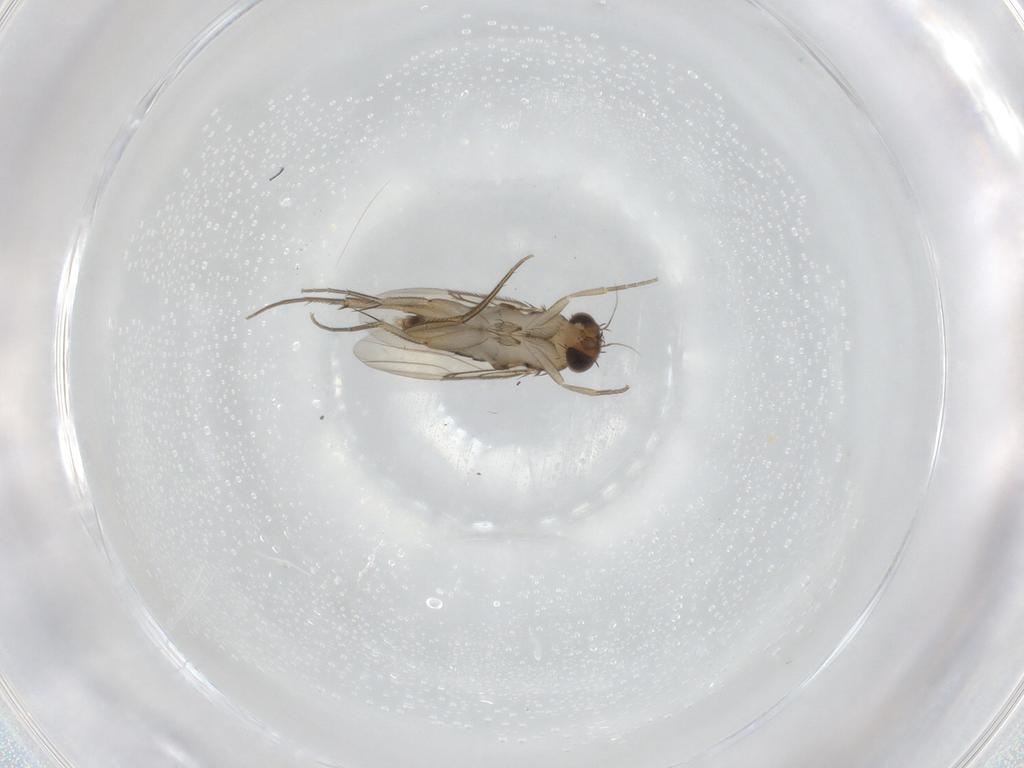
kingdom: Animalia
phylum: Arthropoda
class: Insecta
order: Diptera
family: Phoridae
